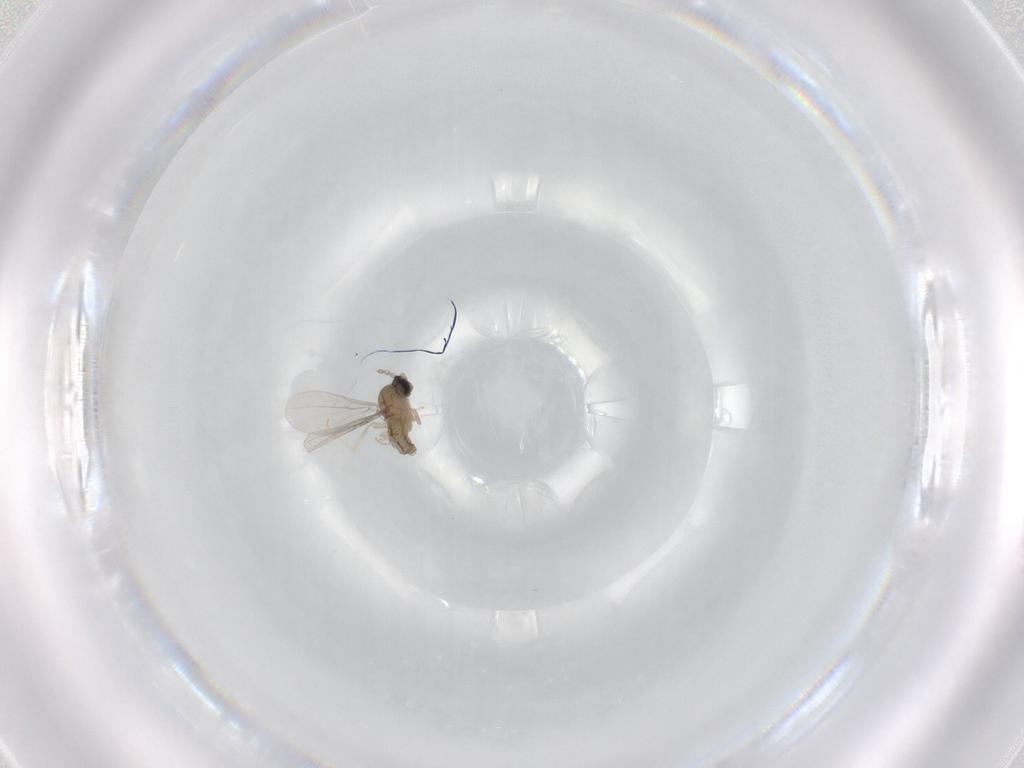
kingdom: Animalia
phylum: Arthropoda
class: Insecta
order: Diptera
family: Cecidomyiidae
